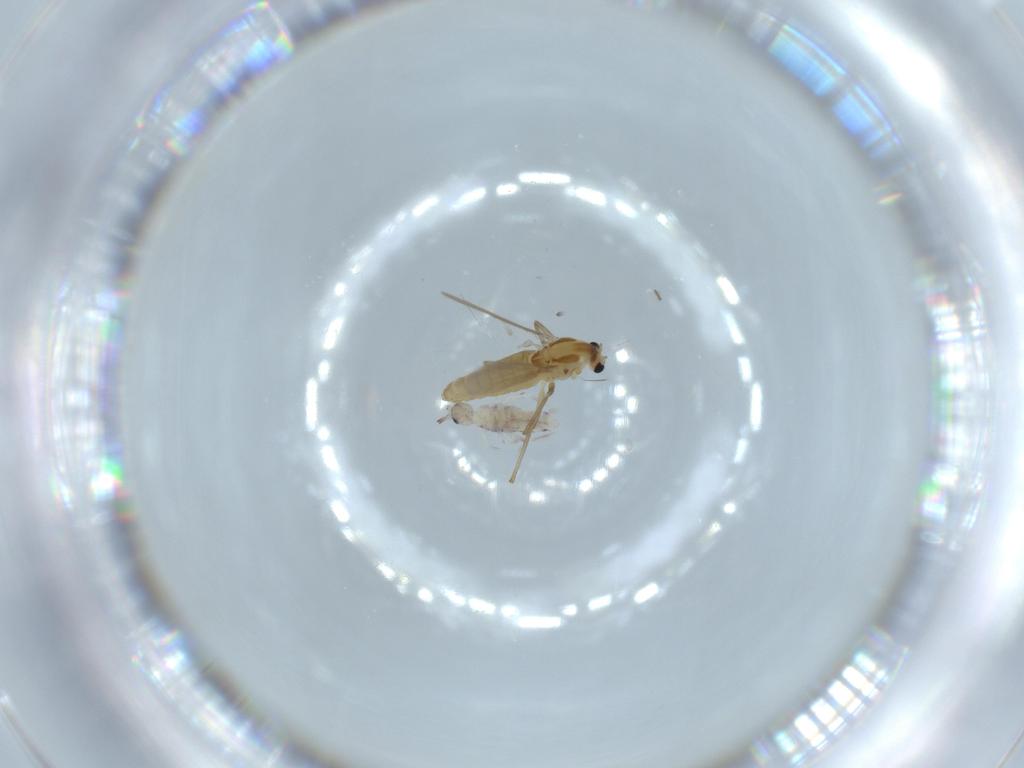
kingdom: Animalia
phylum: Arthropoda
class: Collembola
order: Entomobryomorpha
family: Entomobryidae
